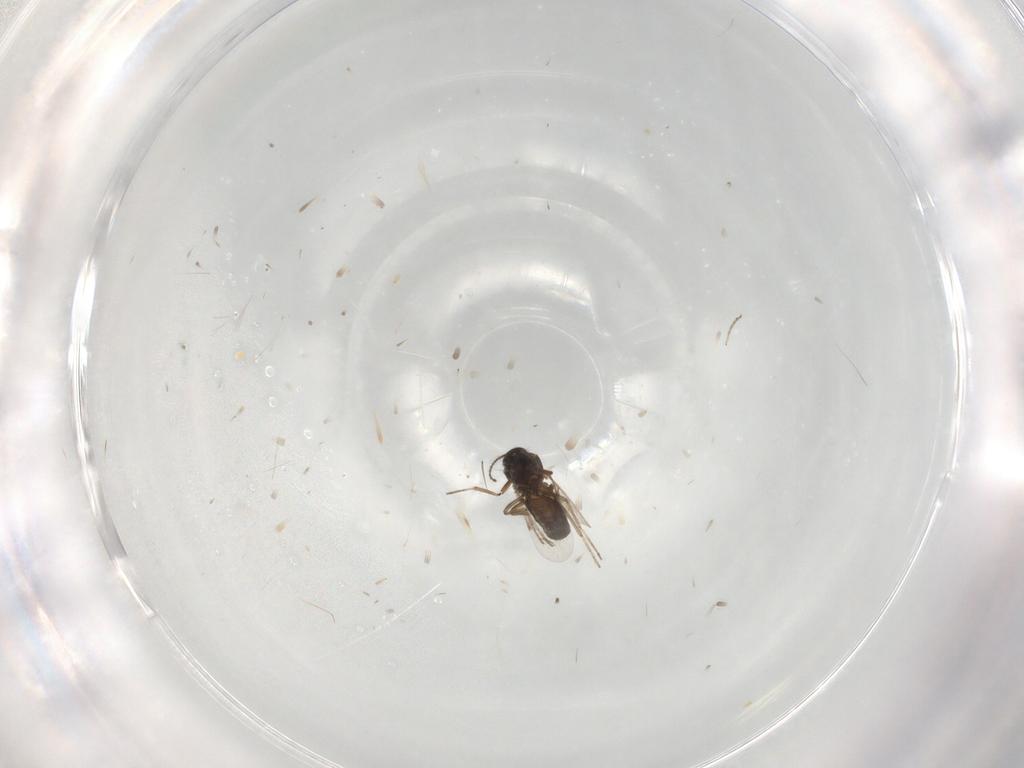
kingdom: Animalia
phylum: Arthropoda
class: Insecta
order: Diptera
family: Ceratopogonidae
